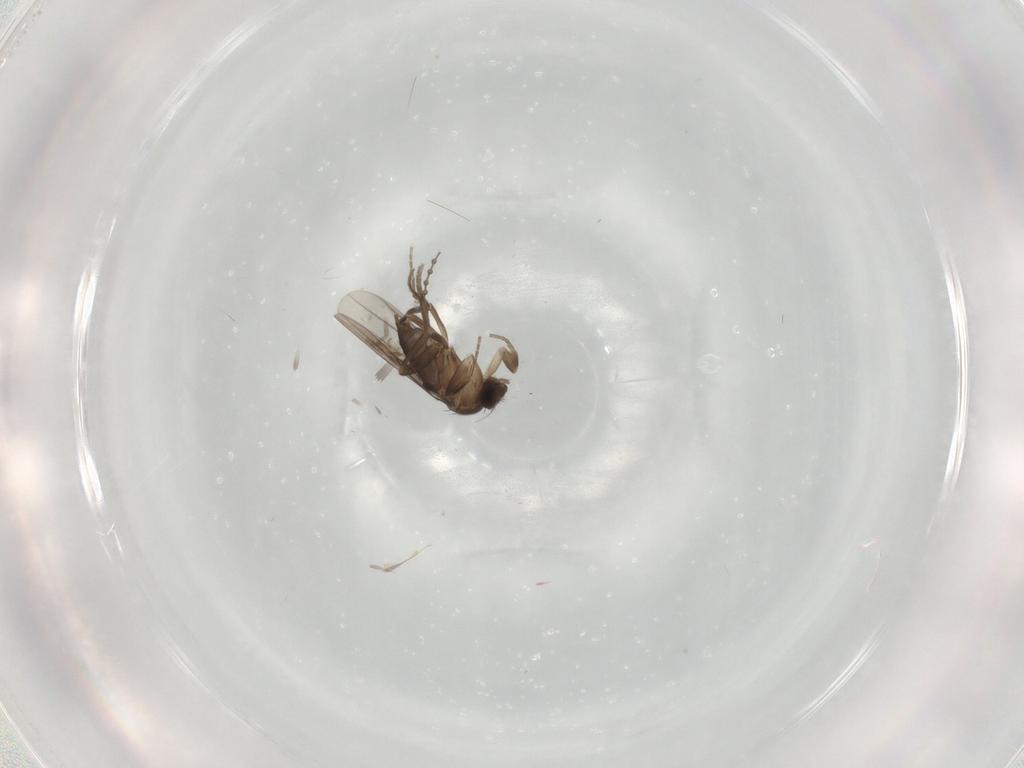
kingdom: Animalia
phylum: Arthropoda
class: Insecta
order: Diptera
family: Phoridae
